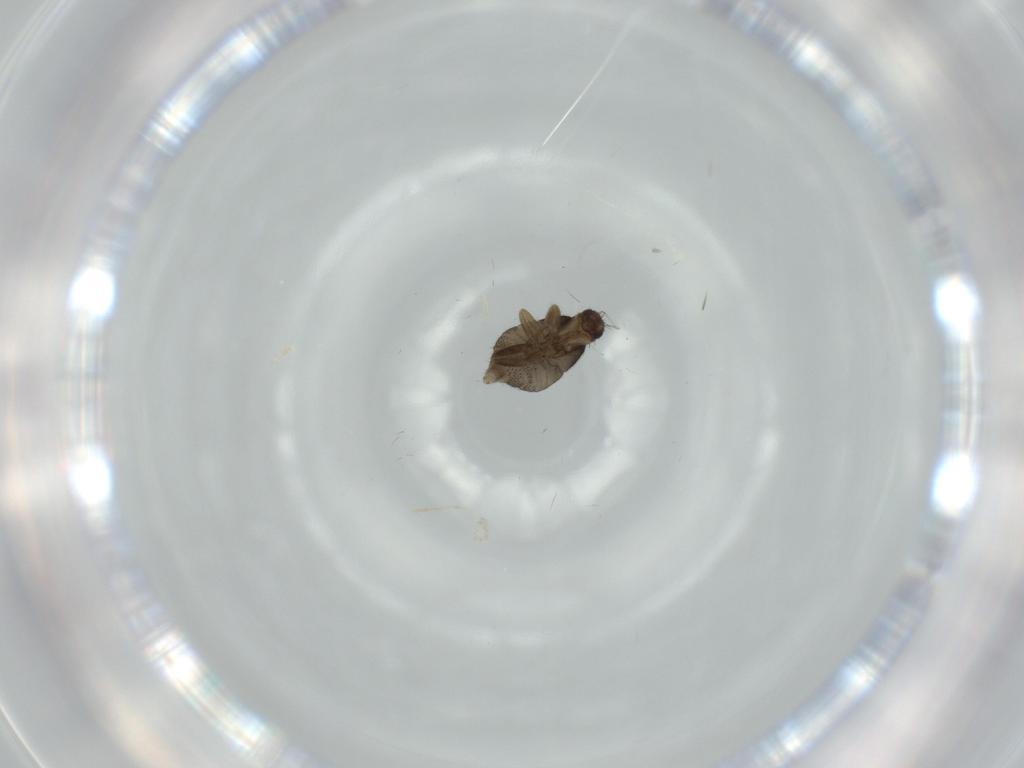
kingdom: Animalia
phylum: Arthropoda
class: Insecta
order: Diptera
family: Phoridae
